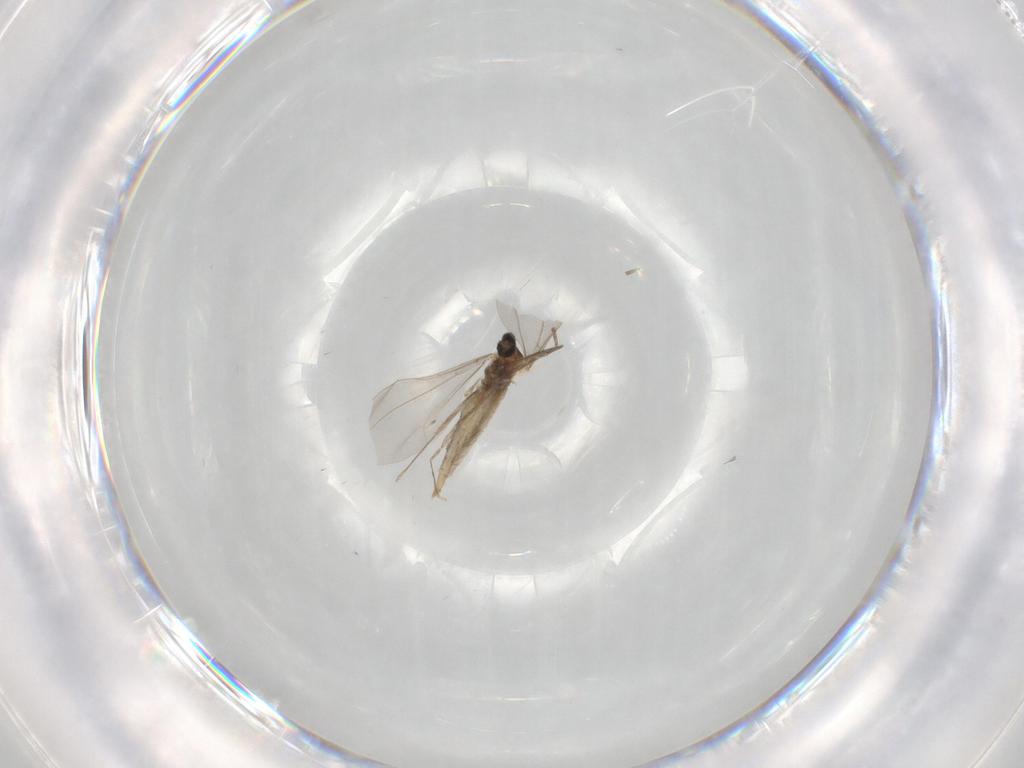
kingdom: Animalia
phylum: Arthropoda
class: Insecta
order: Diptera
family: Cecidomyiidae
